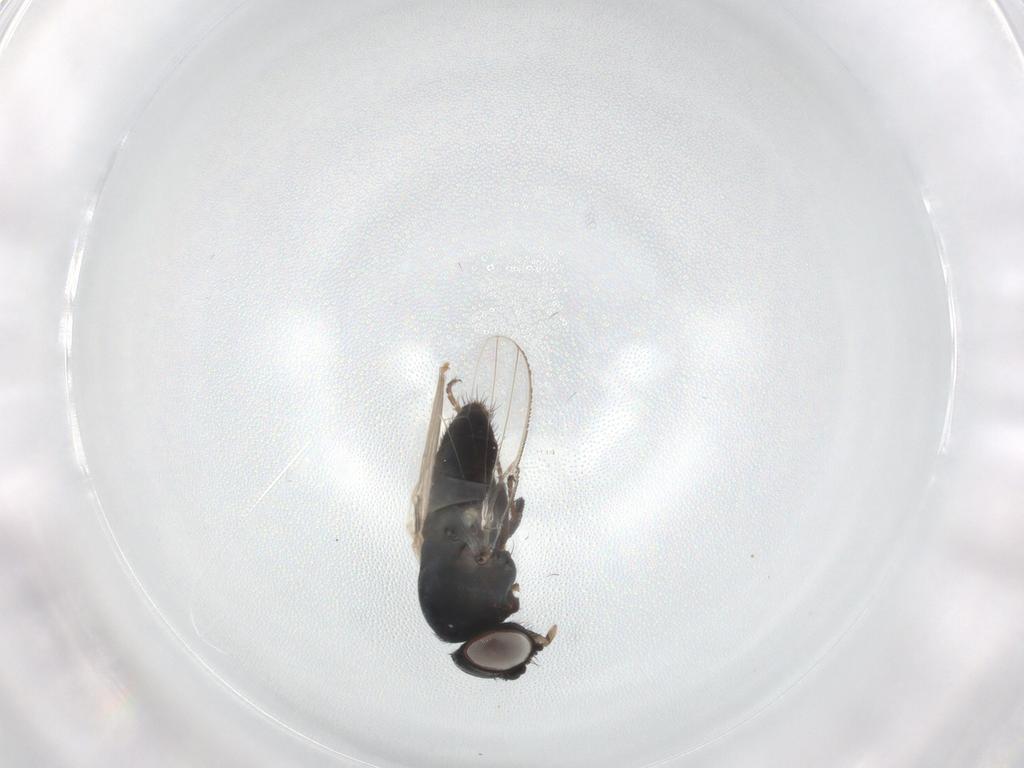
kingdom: Animalia
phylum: Arthropoda
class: Insecta
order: Diptera
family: Milichiidae
